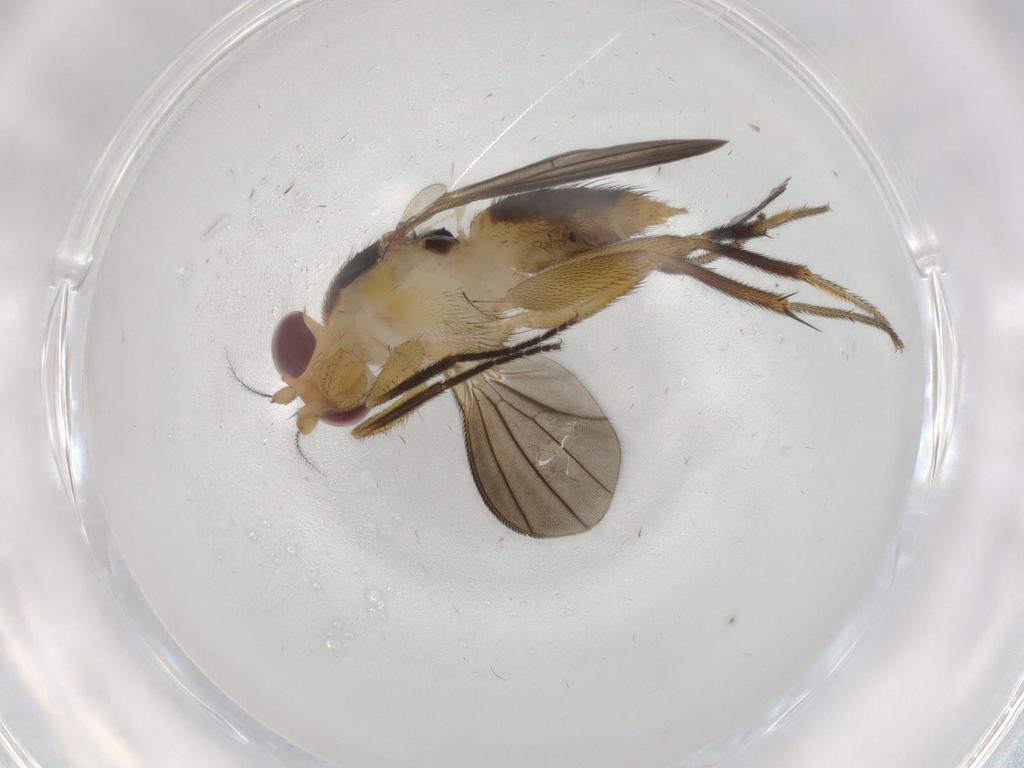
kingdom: Animalia
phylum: Arthropoda
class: Insecta
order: Diptera
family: Clusiidae
